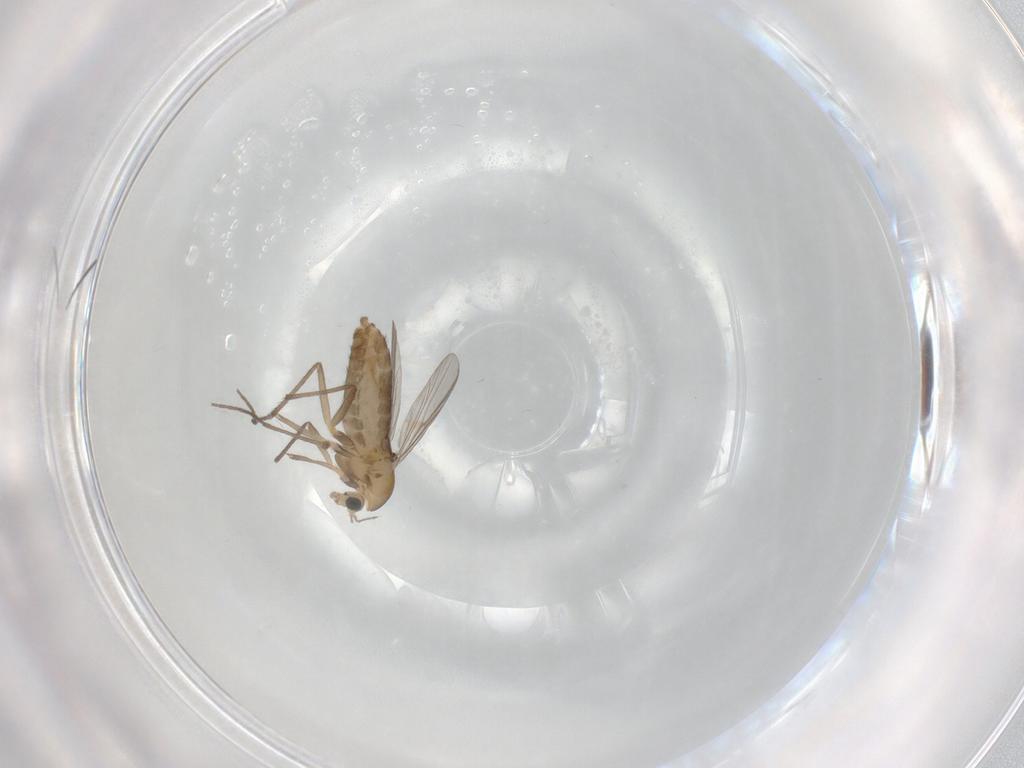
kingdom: Animalia
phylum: Arthropoda
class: Insecta
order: Diptera
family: Chironomidae
